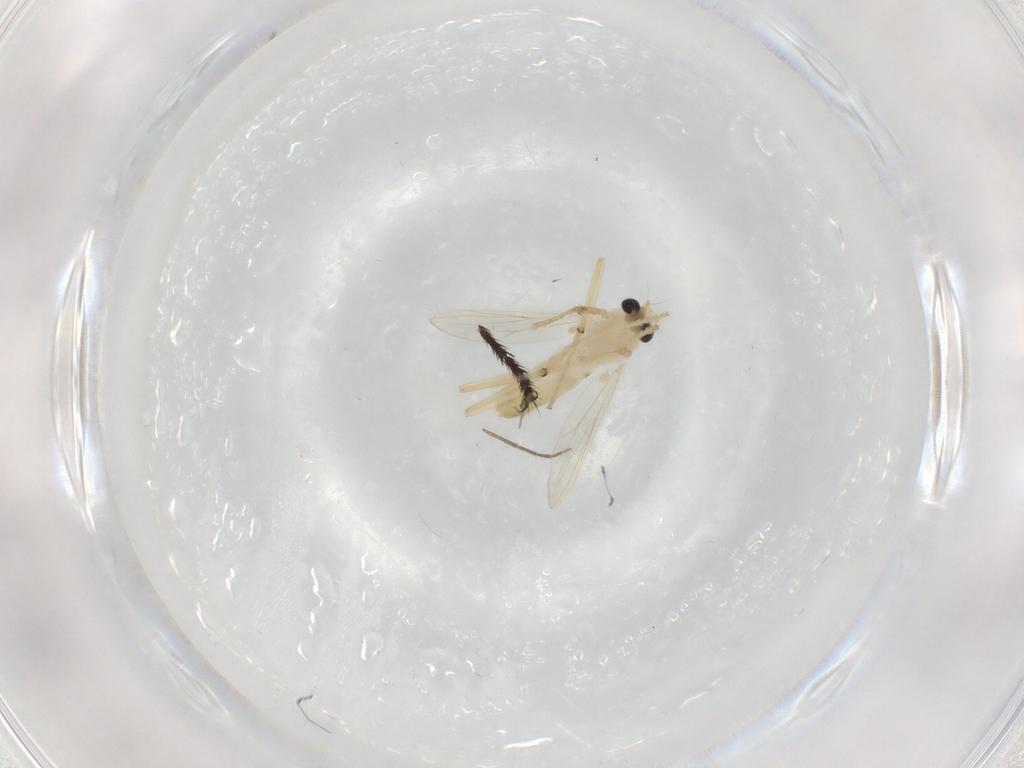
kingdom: Animalia
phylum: Arthropoda
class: Insecta
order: Diptera
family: Chironomidae
